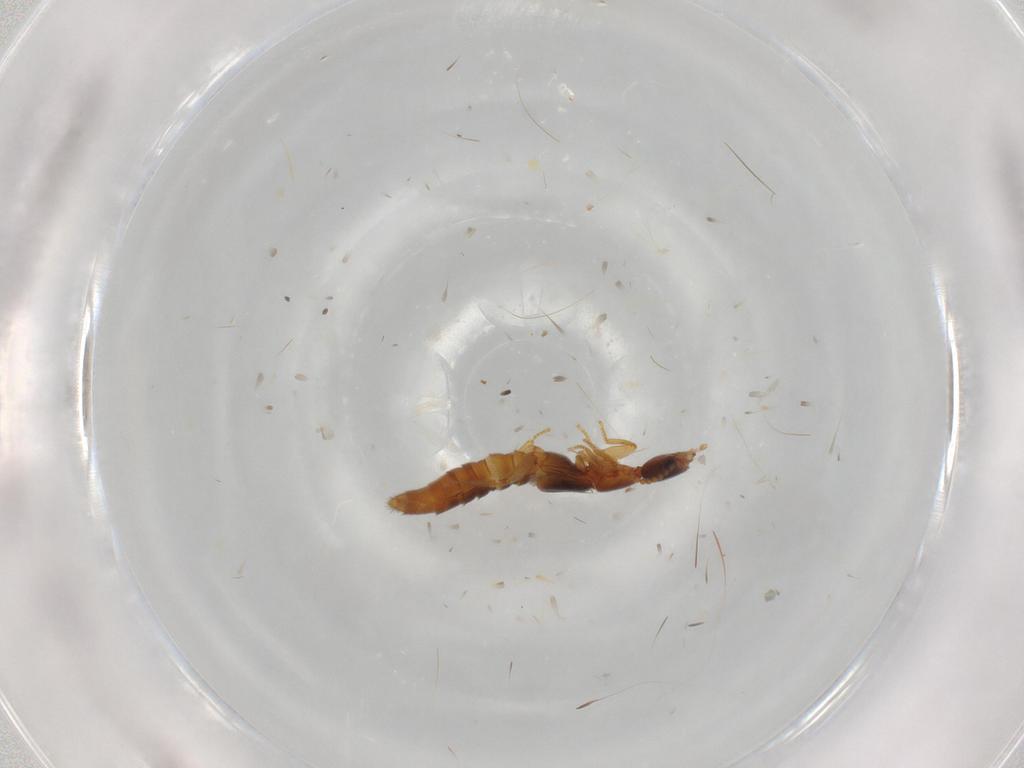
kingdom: Animalia
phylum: Arthropoda
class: Insecta
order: Coleoptera
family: Staphylinidae
